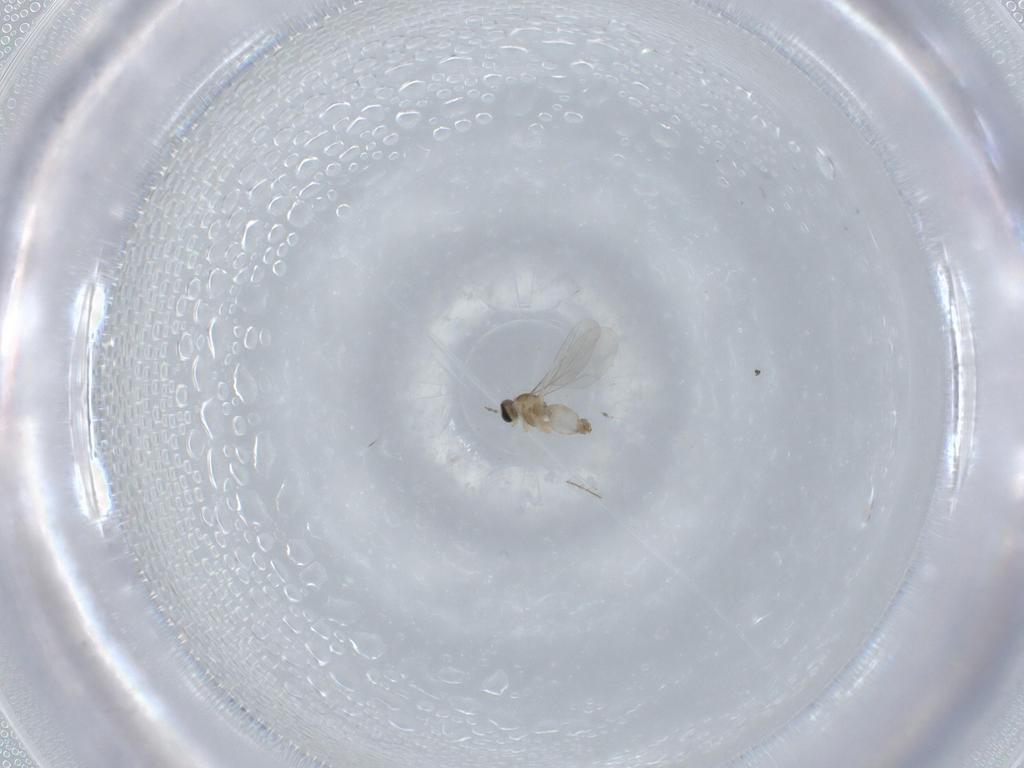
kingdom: Animalia
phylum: Arthropoda
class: Insecta
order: Diptera
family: Cecidomyiidae
